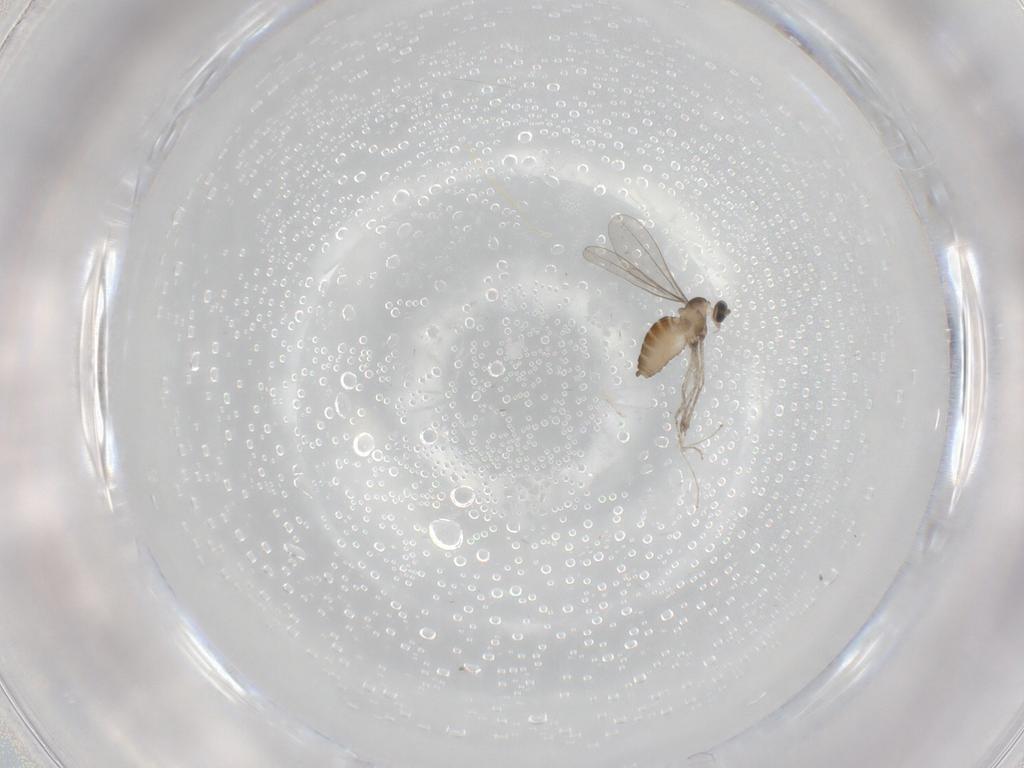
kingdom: Animalia
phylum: Arthropoda
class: Insecta
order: Diptera
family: Cecidomyiidae
